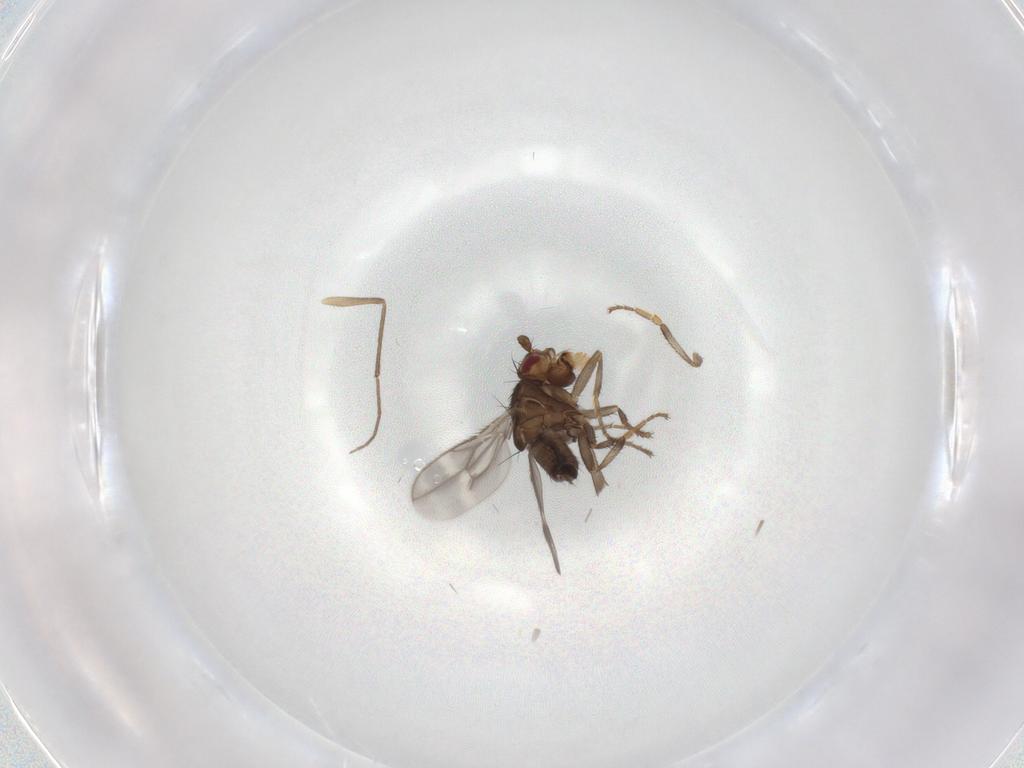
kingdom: Animalia
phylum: Arthropoda
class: Insecta
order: Diptera
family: Sphaeroceridae
